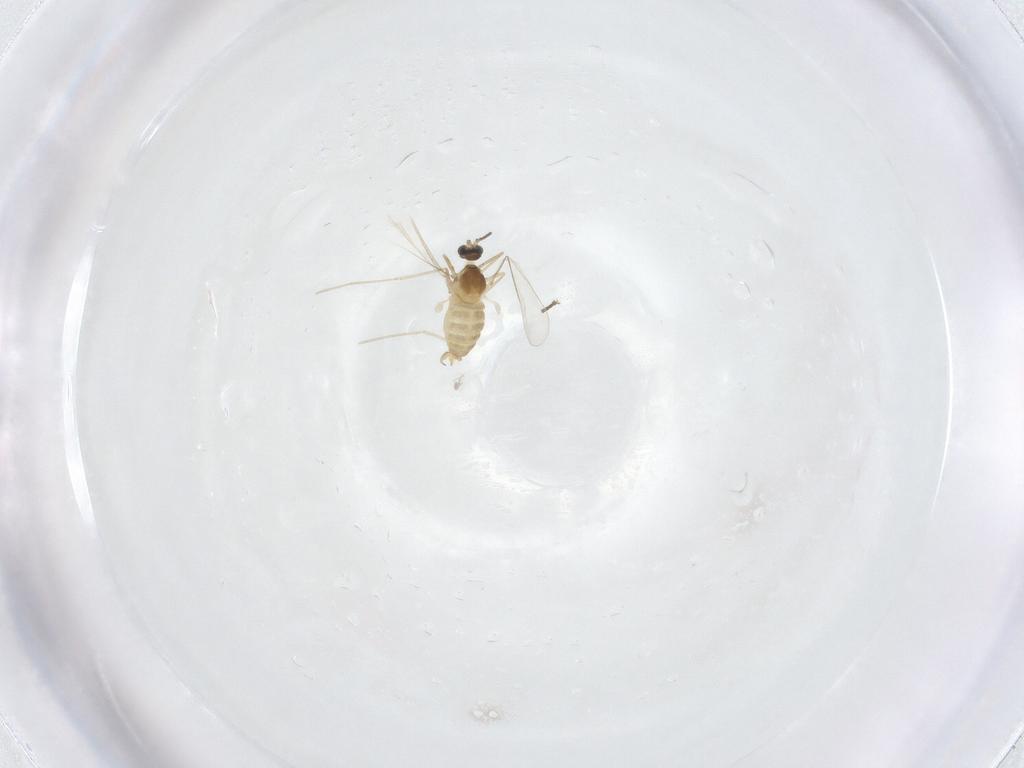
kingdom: Animalia
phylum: Arthropoda
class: Insecta
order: Diptera
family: Cecidomyiidae
